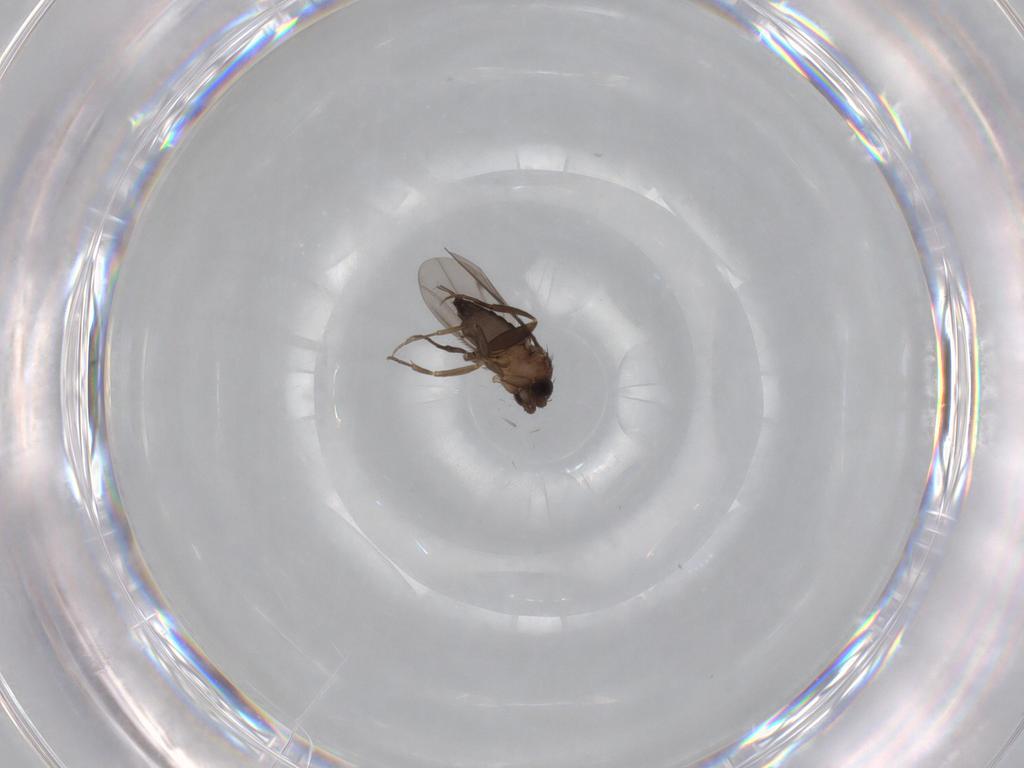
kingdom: Animalia
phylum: Arthropoda
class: Insecta
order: Diptera
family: Phoridae
